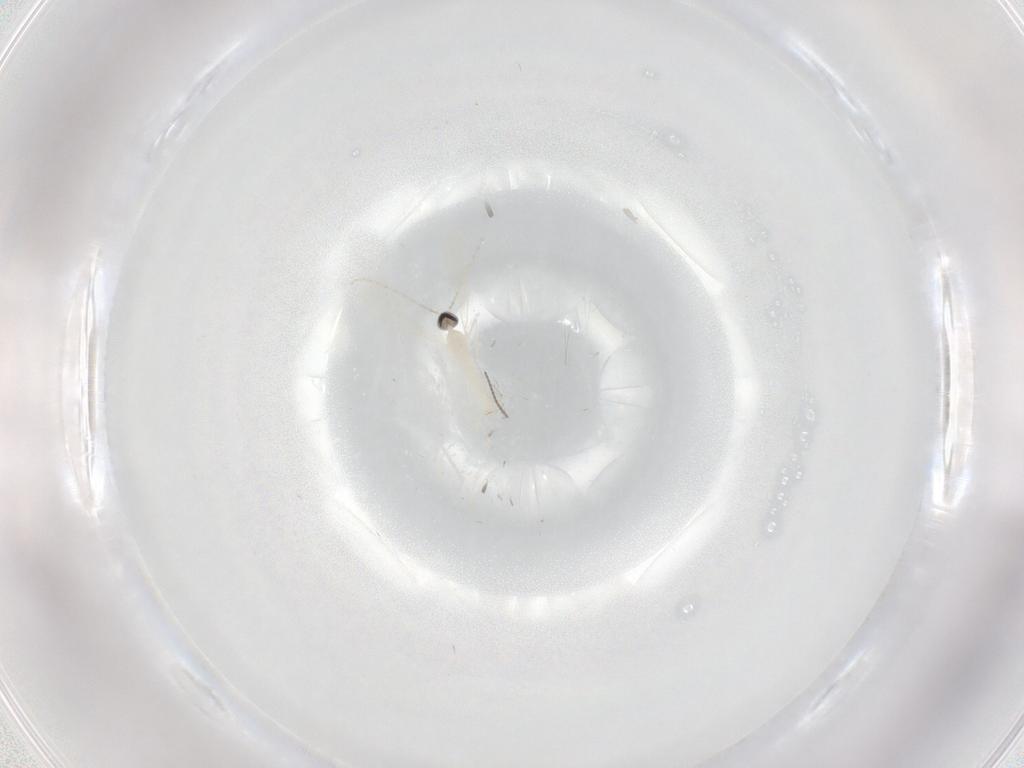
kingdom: Animalia
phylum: Arthropoda
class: Insecta
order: Diptera
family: Cecidomyiidae
